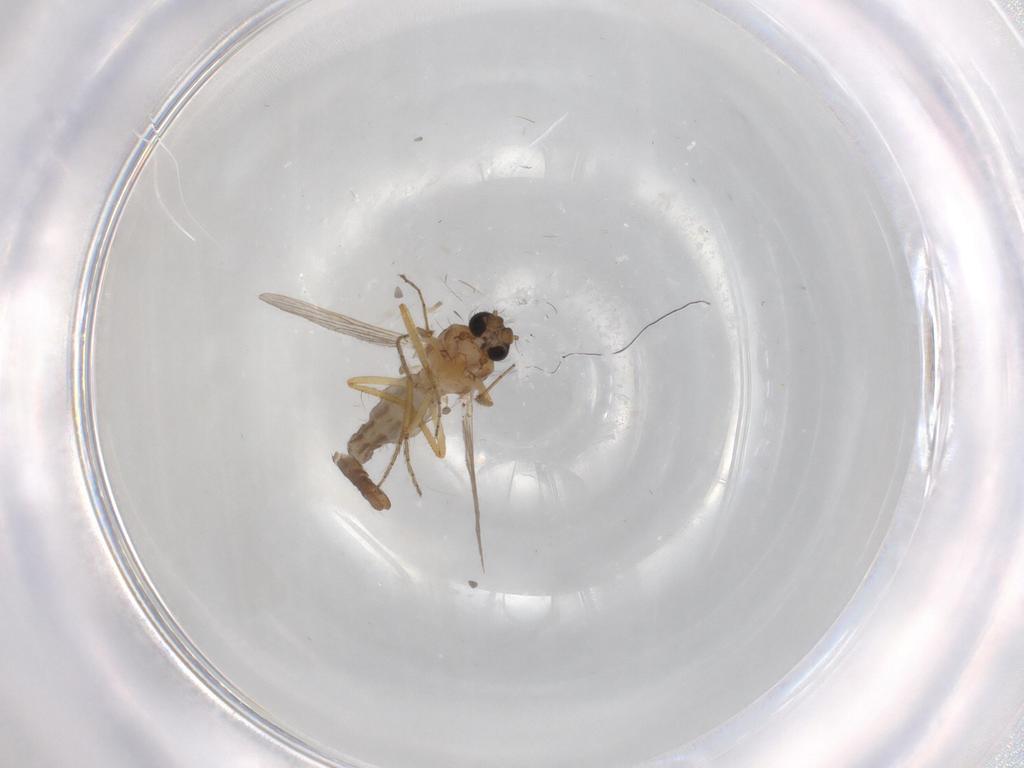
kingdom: Animalia
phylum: Arthropoda
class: Insecta
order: Diptera
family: Ceratopogonidae
